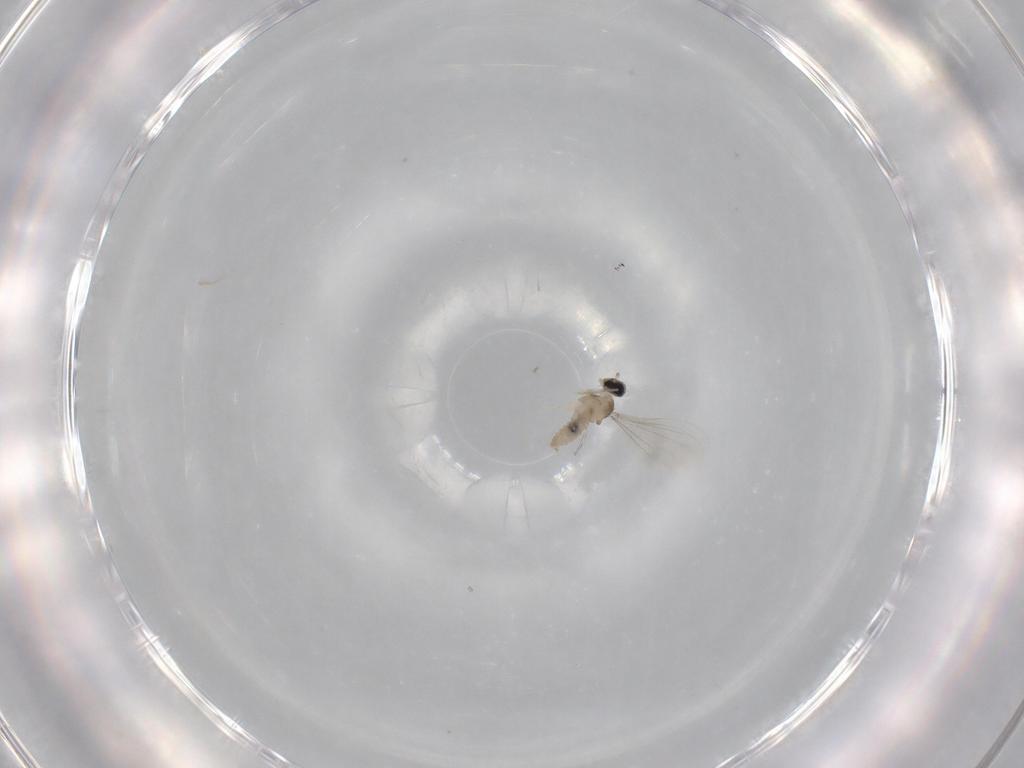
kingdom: Animalia
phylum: Arthropoda
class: Insecta
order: Diptera
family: Cecidomyiidae
